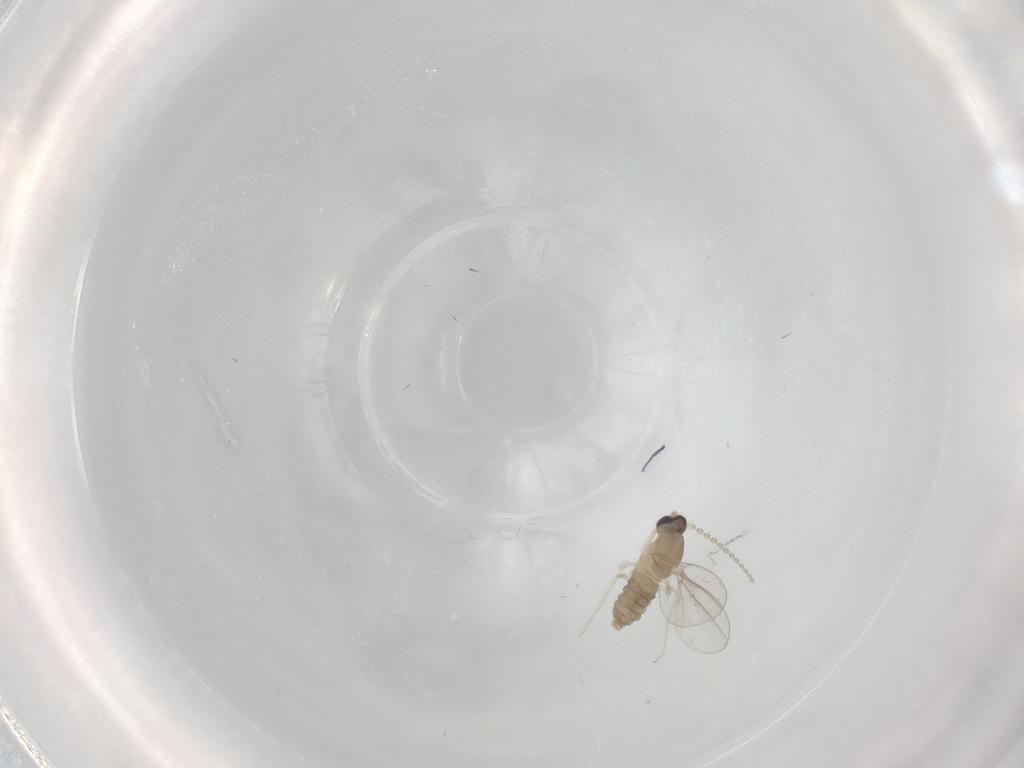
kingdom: Animalia
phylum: Arthropoda
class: Insecta
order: Diptera
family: Cecidomyiidae
